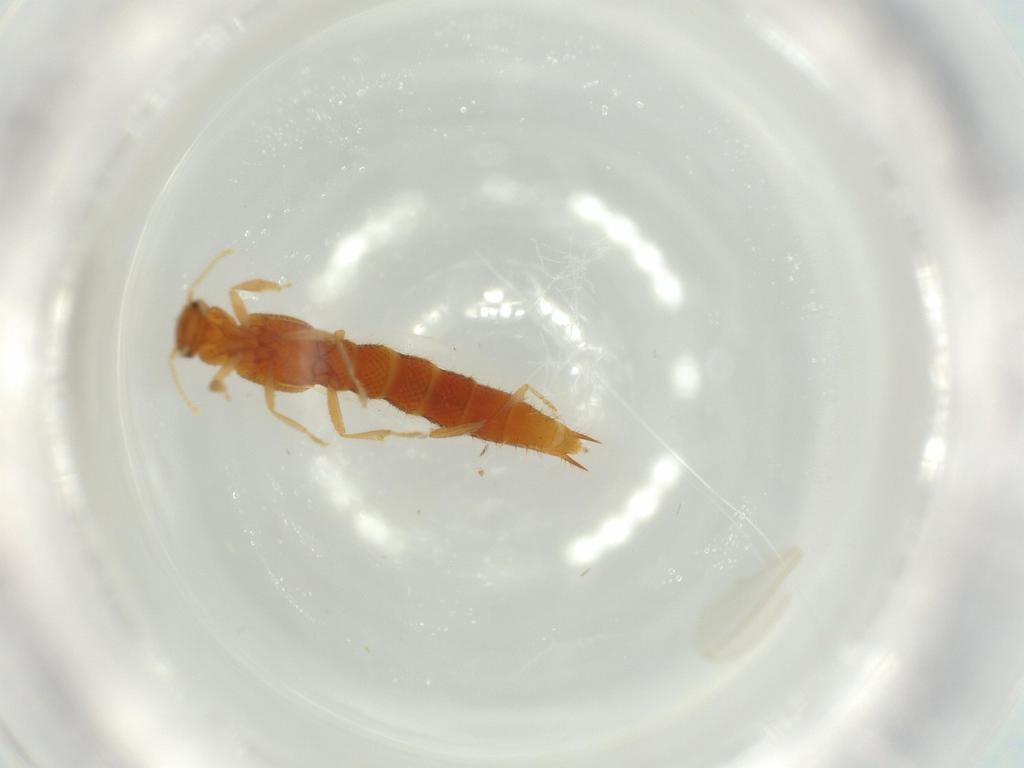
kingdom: Animalia
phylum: Arthropoda
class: Insecta
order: Coleoptera
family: Staphylinidae
